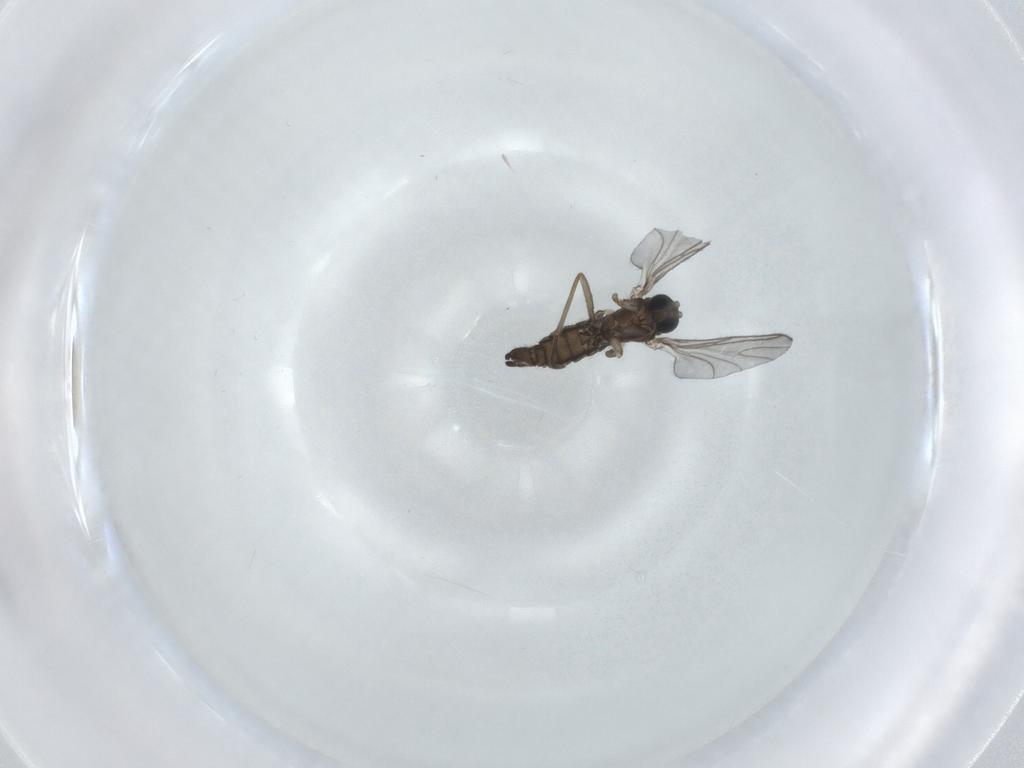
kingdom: Animalia
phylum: Arthropoda
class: Insecta
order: Diptera
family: Sciaridae
